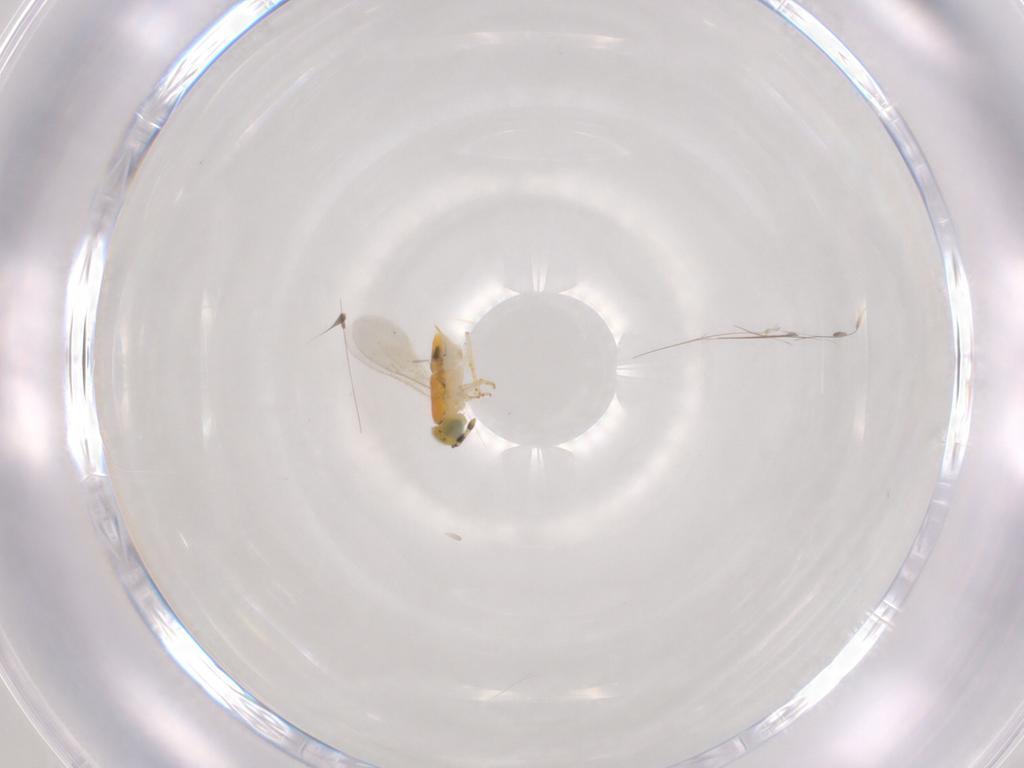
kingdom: Animalia
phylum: Arthropoda
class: Insecta
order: Hymenoptera
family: Encyrtidae
